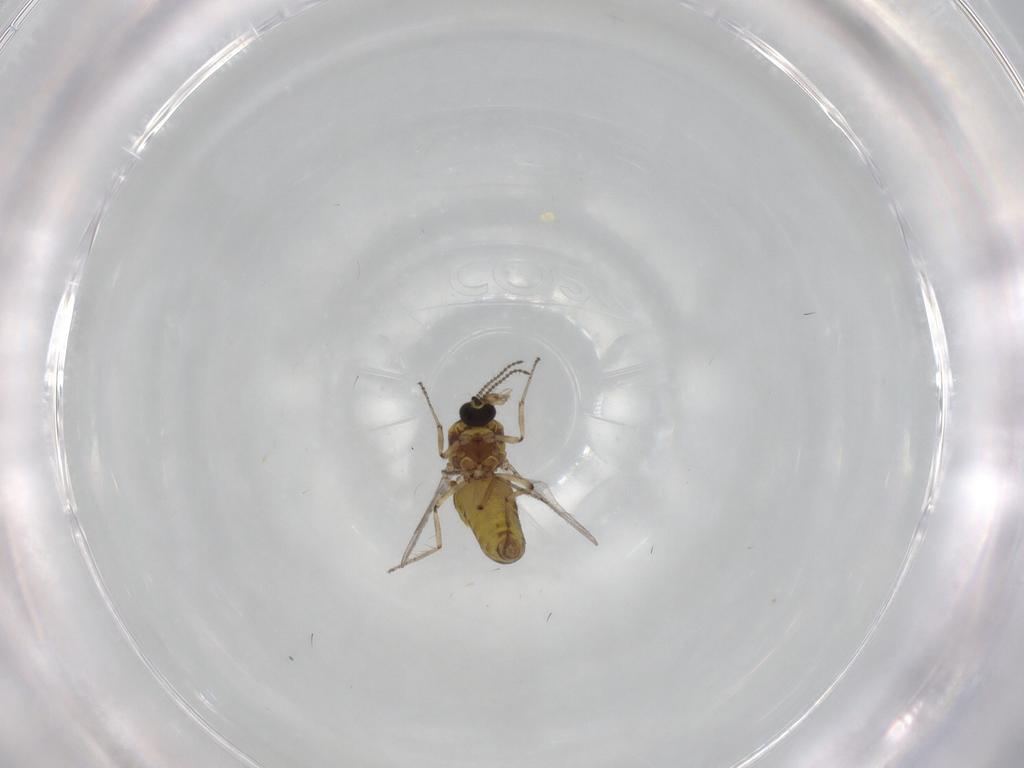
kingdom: Animalia
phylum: Arthropoda
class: Insecta
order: Diptera
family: Ceratopogonidae
